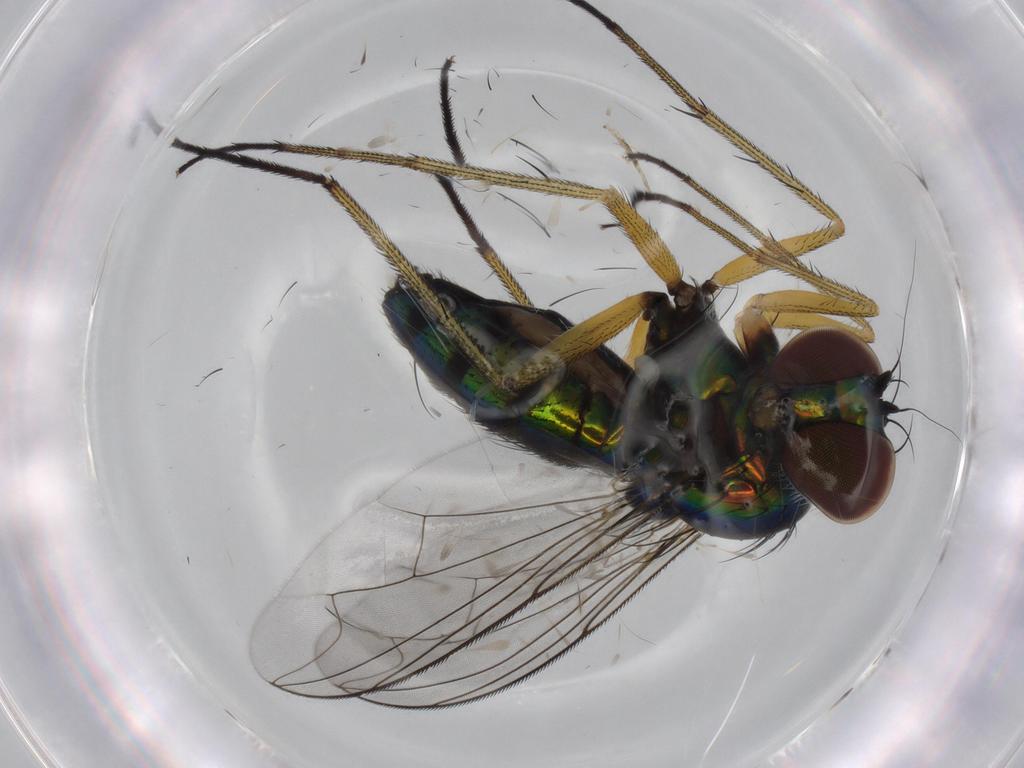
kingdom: Animalia
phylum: Arthropoda
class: Insecta
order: Diptera
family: Dolichopodidae
